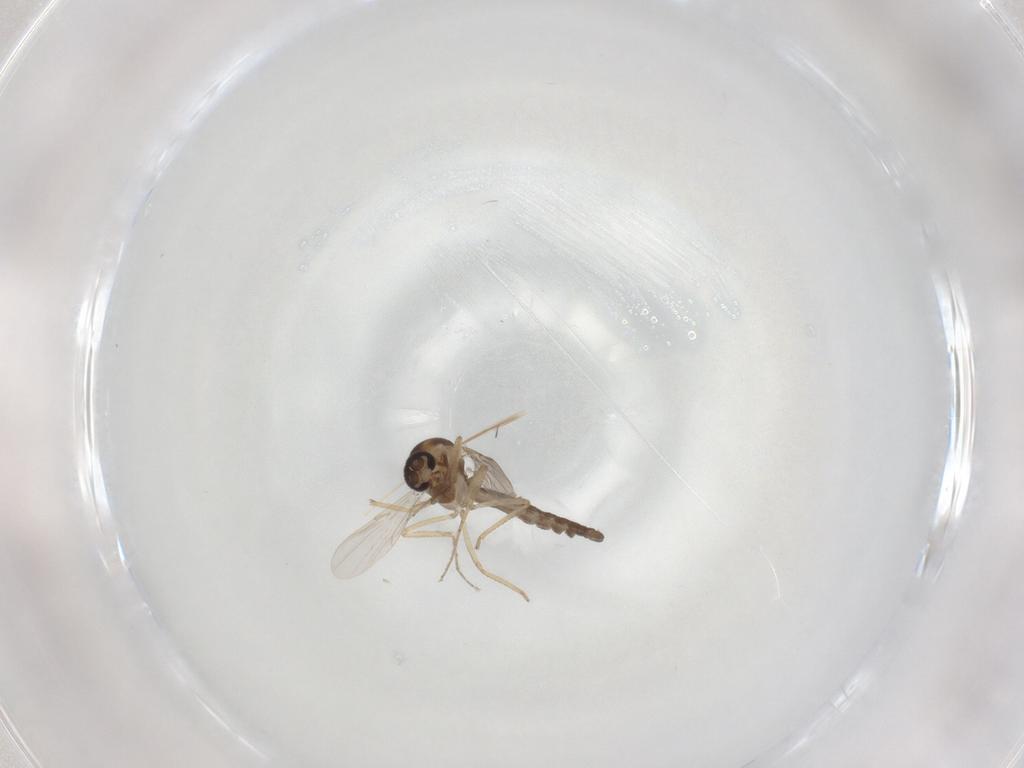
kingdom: Animalia
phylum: Arthropoda
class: Insecta
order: Diptera
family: Ceratopogonidae
